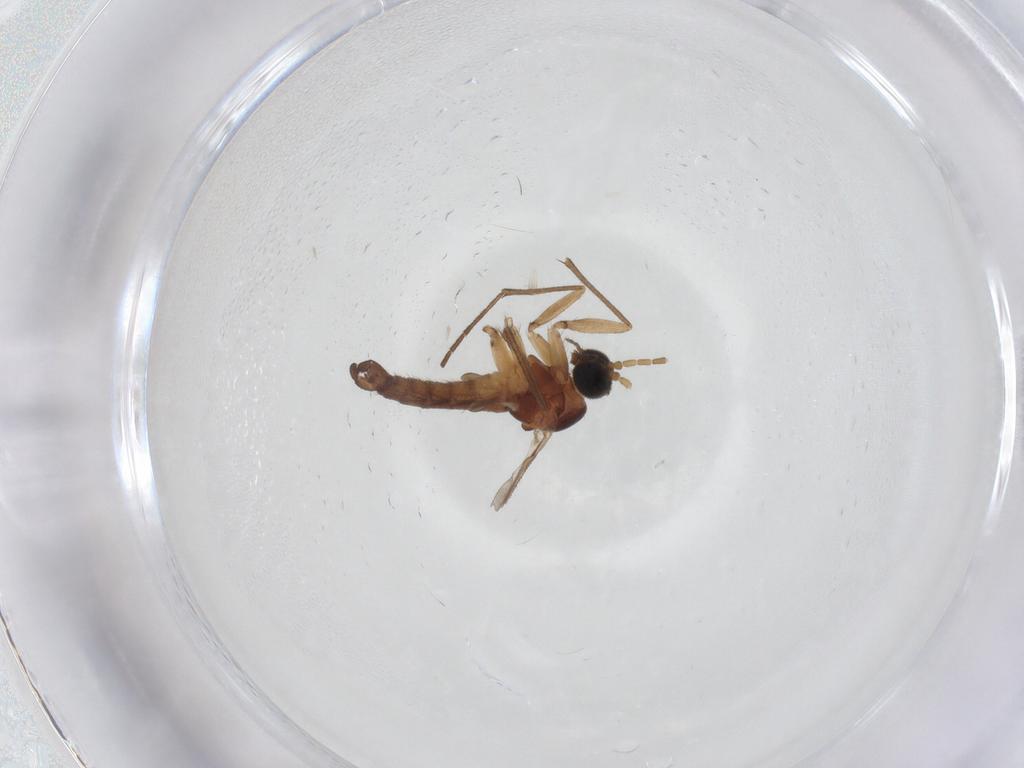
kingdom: Animalia
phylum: Arthropoda
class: Insecta
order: Diptera
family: Sciaridae
